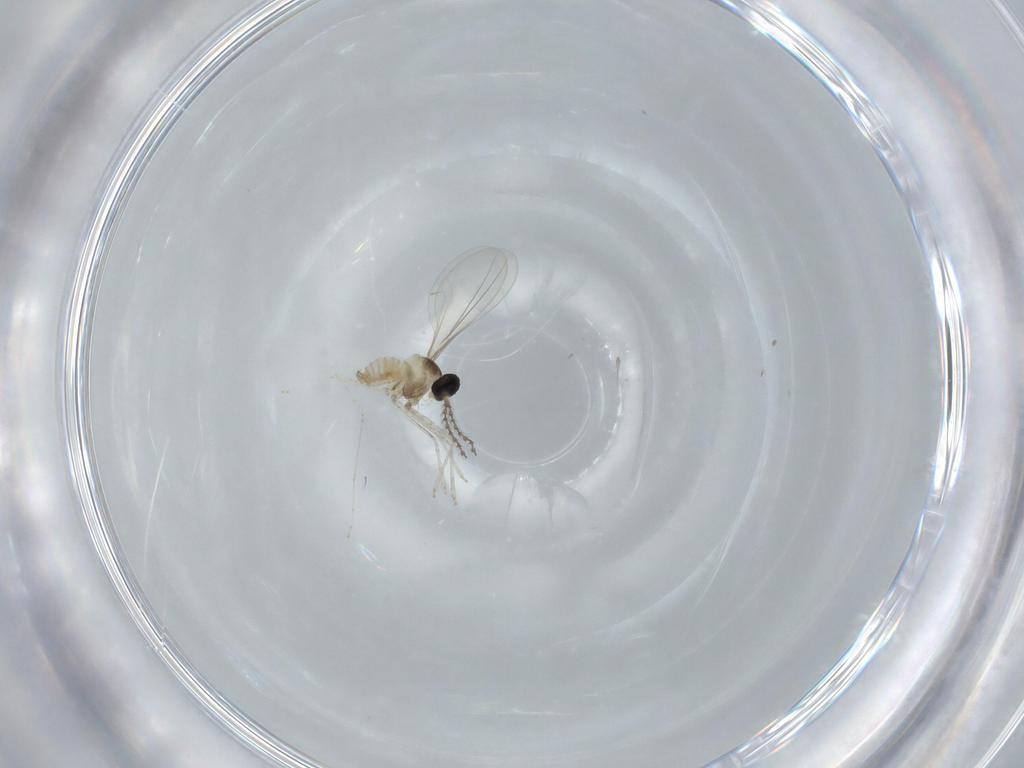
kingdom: Animalia
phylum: Arthropoda
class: Insecta
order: Diptera
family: Cecidomyiidae
